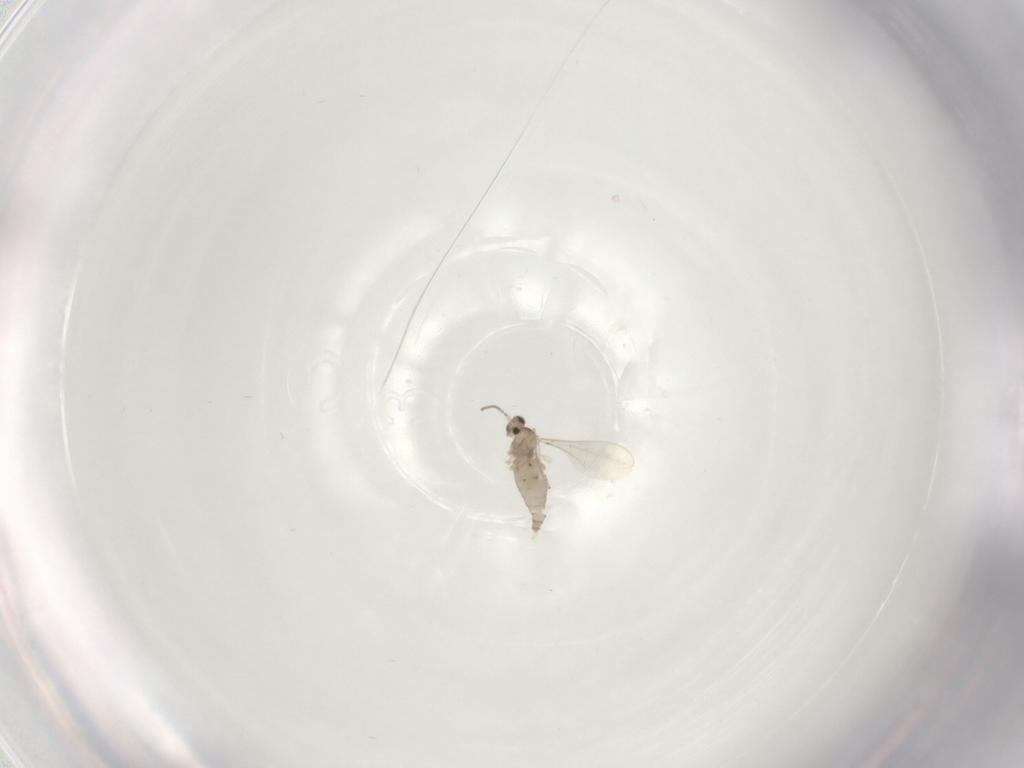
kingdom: Animalia
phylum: Arthropoda
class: Insecta
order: Diptera
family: Cecidomyiidae
